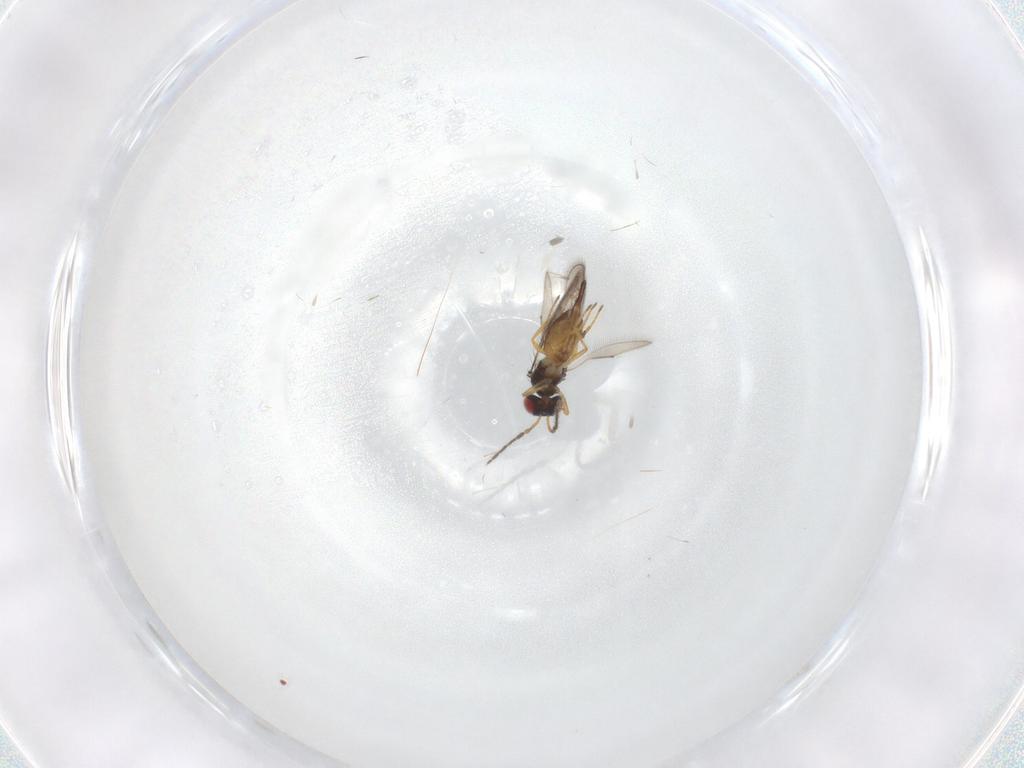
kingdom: Animalia
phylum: Arthropoda
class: Insecta
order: Hymenoptera
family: Eulophidae
